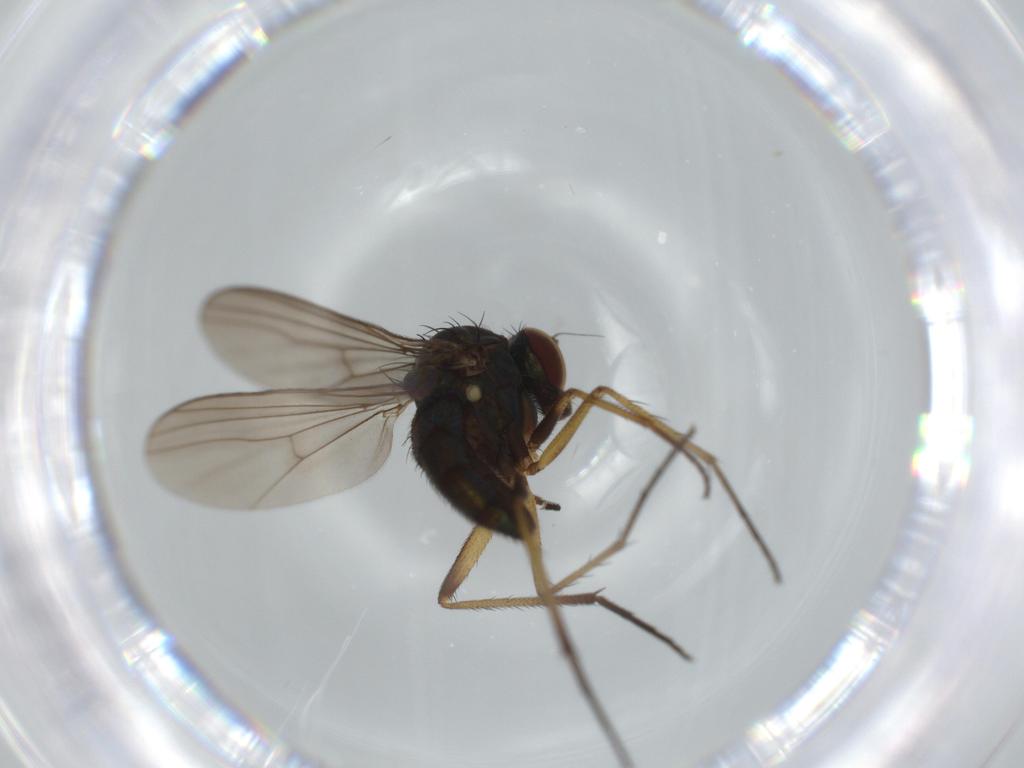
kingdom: Animalia
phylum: Arthropoda
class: Insecta
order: Diptera
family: Dolichopodidae
